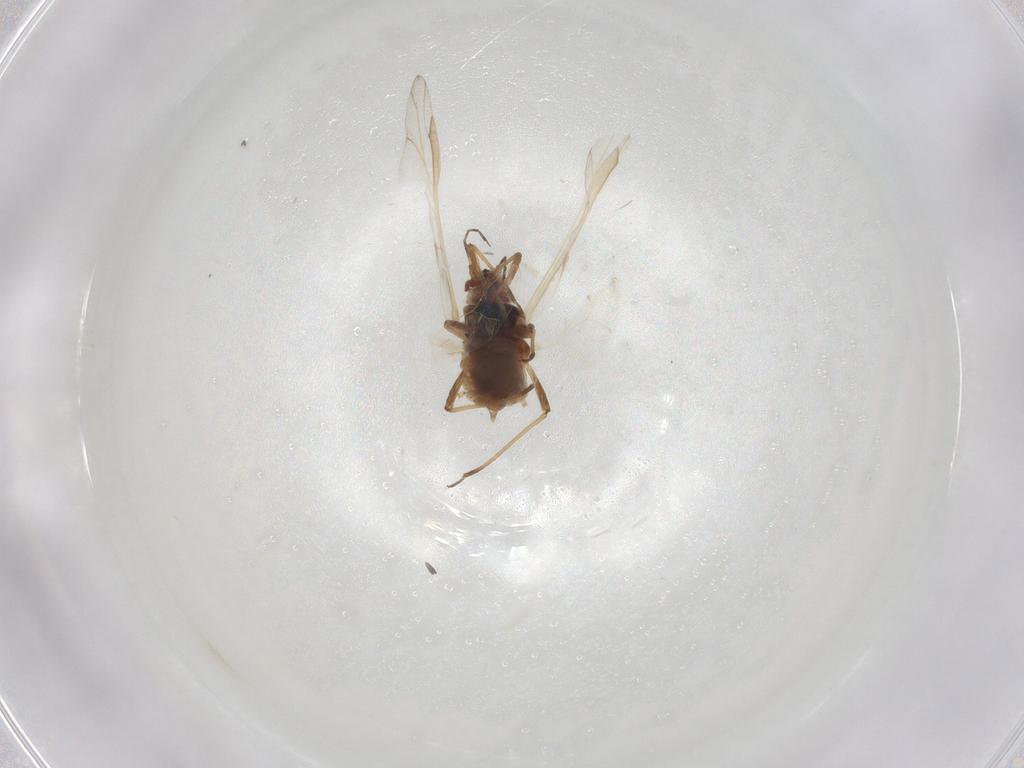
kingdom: Animalia
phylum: Arthropoda
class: Insecta
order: Hemiptera
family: Aphididae
